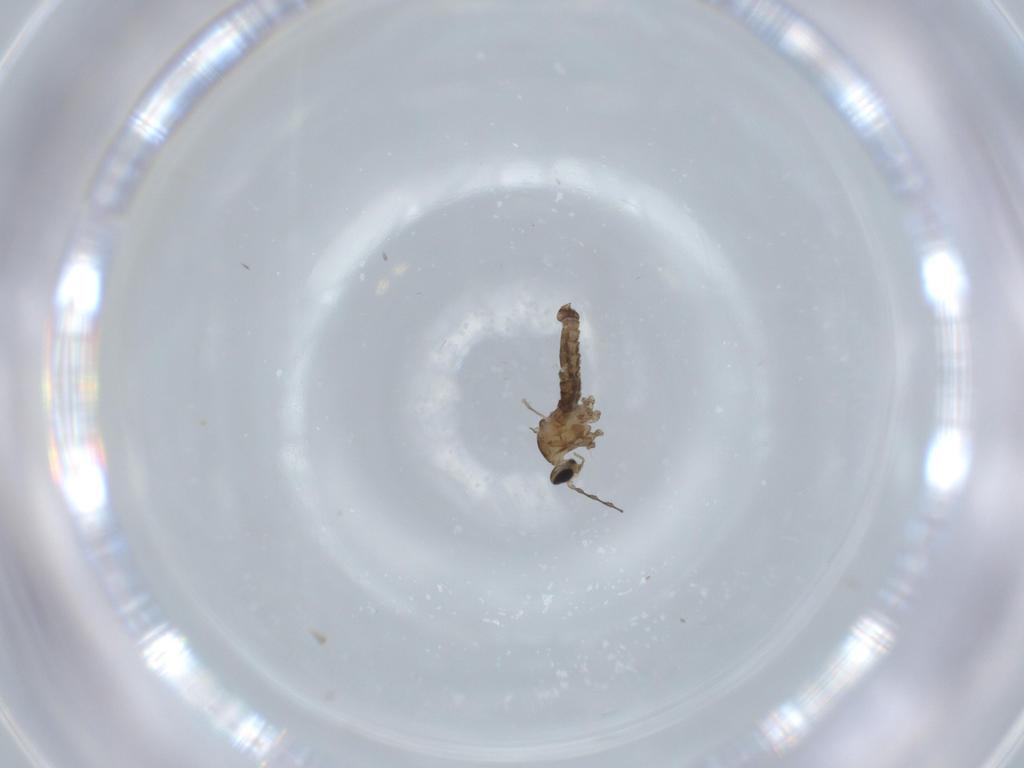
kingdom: Animalia
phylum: Arthropoda
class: Insecta
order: Diptera
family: Cecidomyiidae
